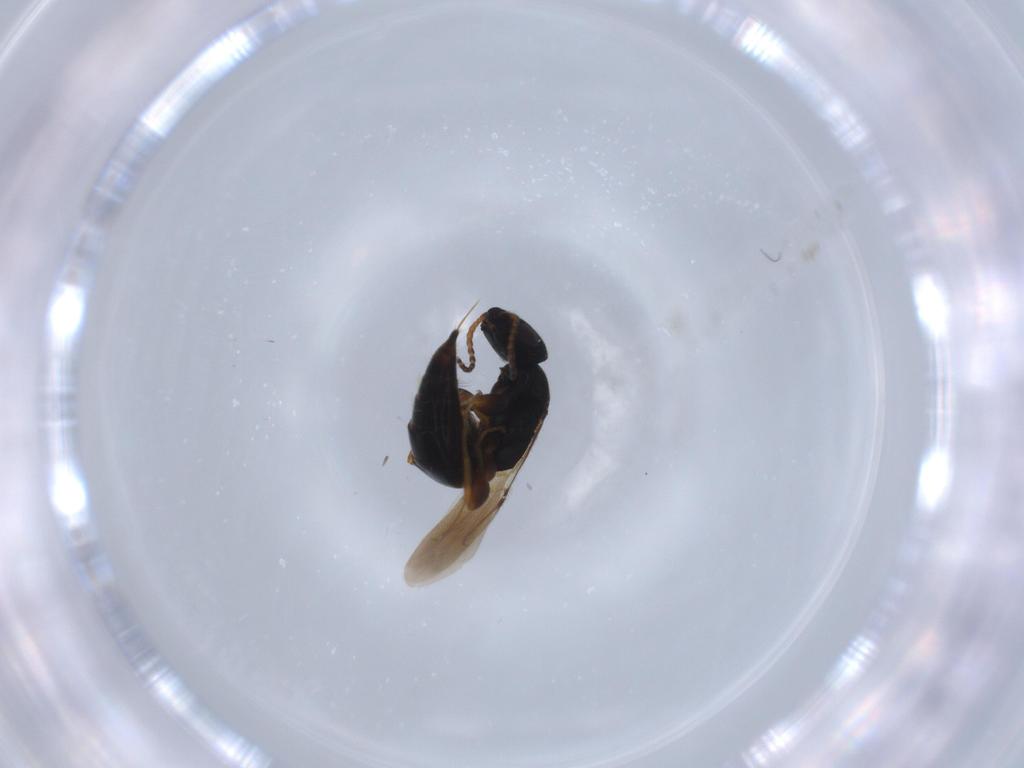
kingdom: Animalia
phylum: Arthropoda
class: Insecta
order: Hymenoptera
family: Bethylidae
